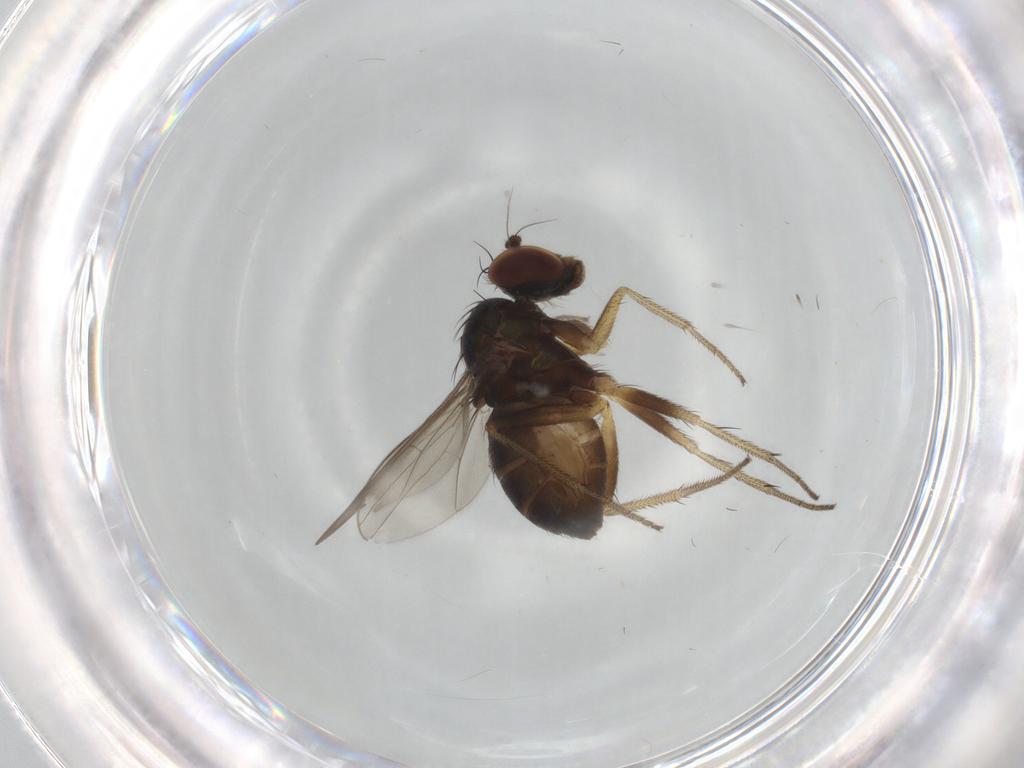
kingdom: Animalia
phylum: Arthropoda
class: Insecta
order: Diptera
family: Dolichopodidae
